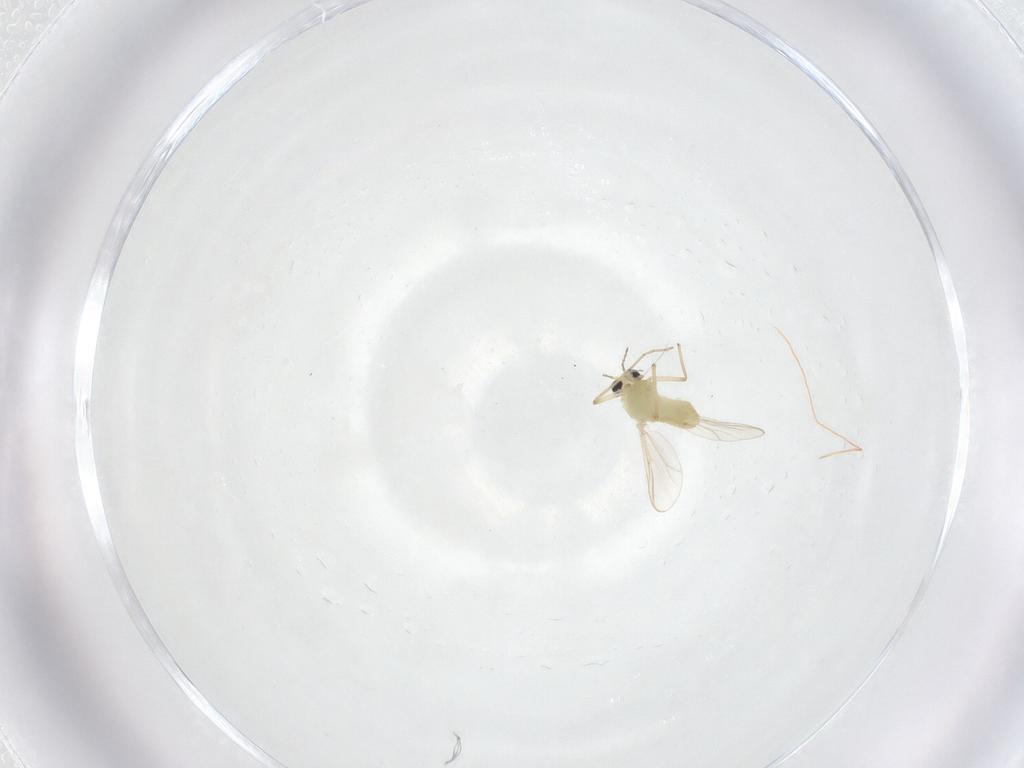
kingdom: Animalia
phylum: Arthropoda
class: Insecta
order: Diptera
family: Chironomidae
